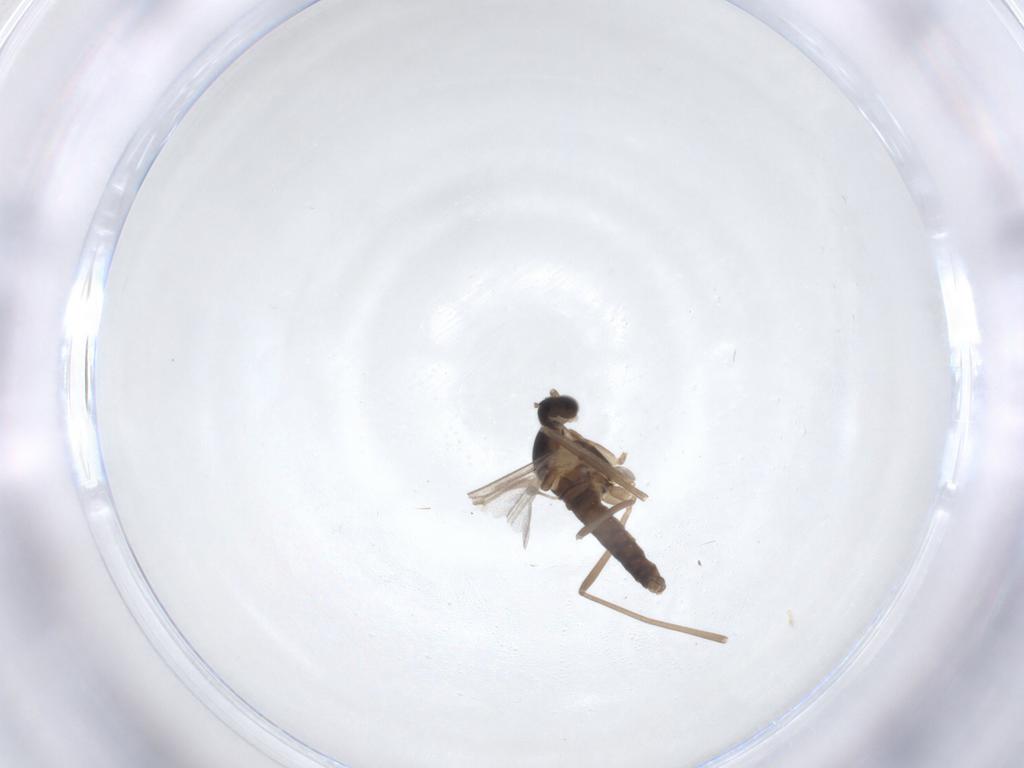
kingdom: Animalia
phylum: Arthropoda
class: Insecta
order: Diptera
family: Cecidomyiidae
